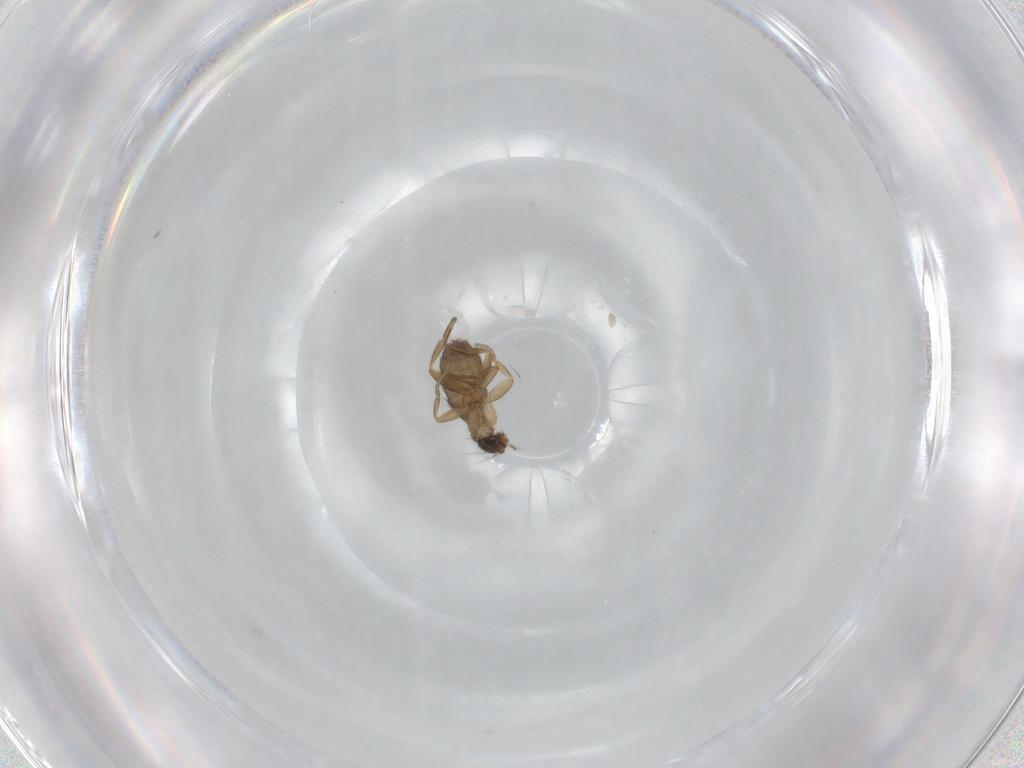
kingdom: Animalia
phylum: Arthropoda
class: Insecta
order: Diptera
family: Phoridae
